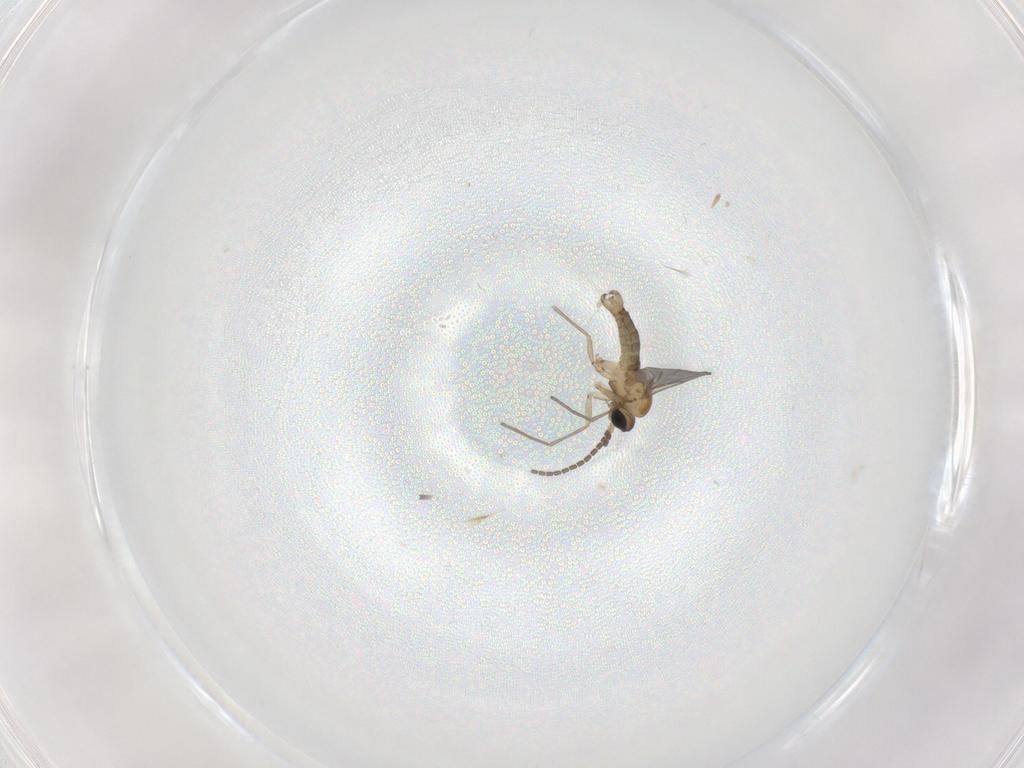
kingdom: Animalia
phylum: Arthropoda
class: Insecta
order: Diptera
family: Sciaridae
